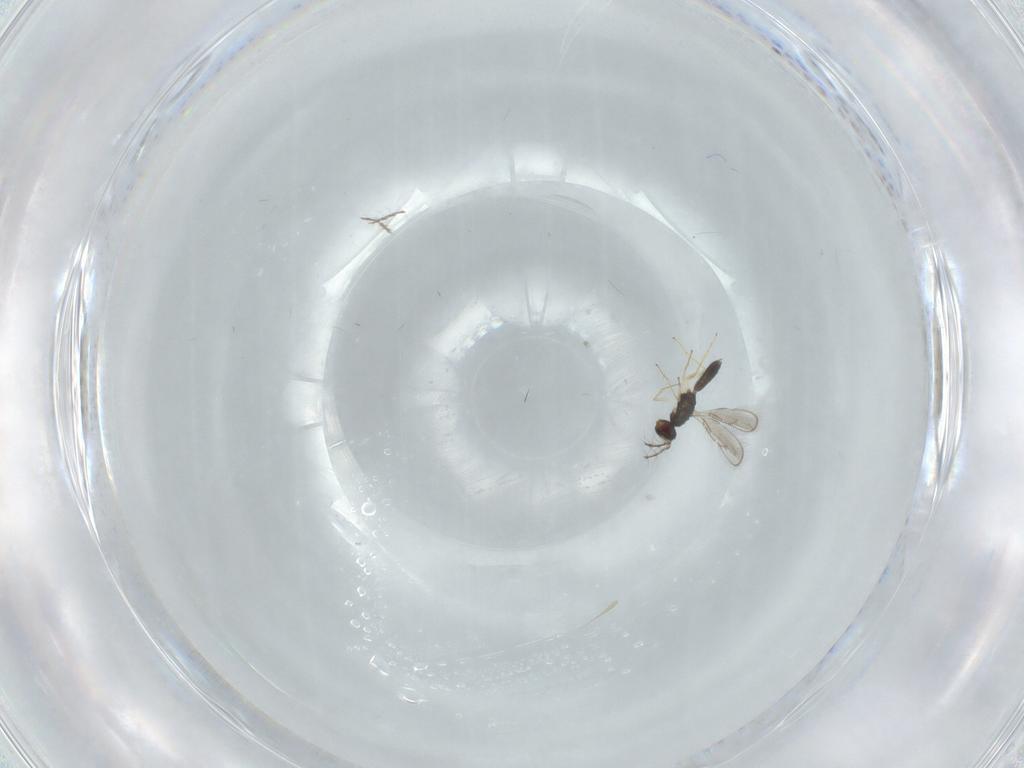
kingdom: Animalia
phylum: Arthropoda
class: Insecta
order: Hymenoptera
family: Pteromalidae
